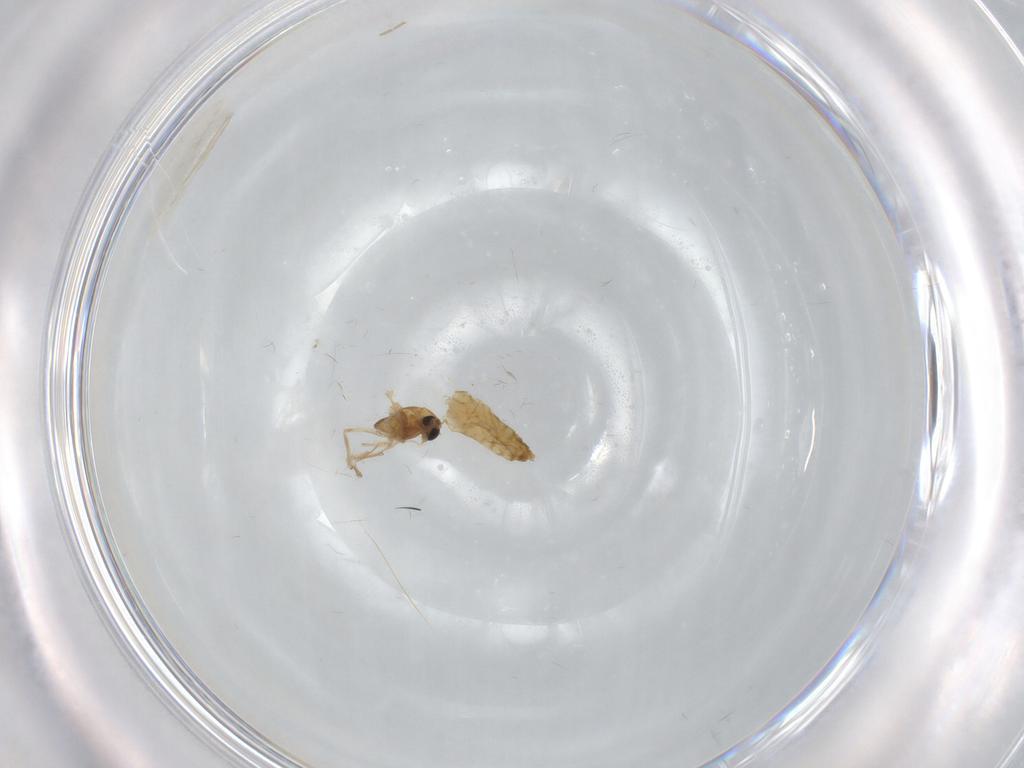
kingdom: Animalia
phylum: Arthropoda
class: Insecta
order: Diptera
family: Chironomidae
